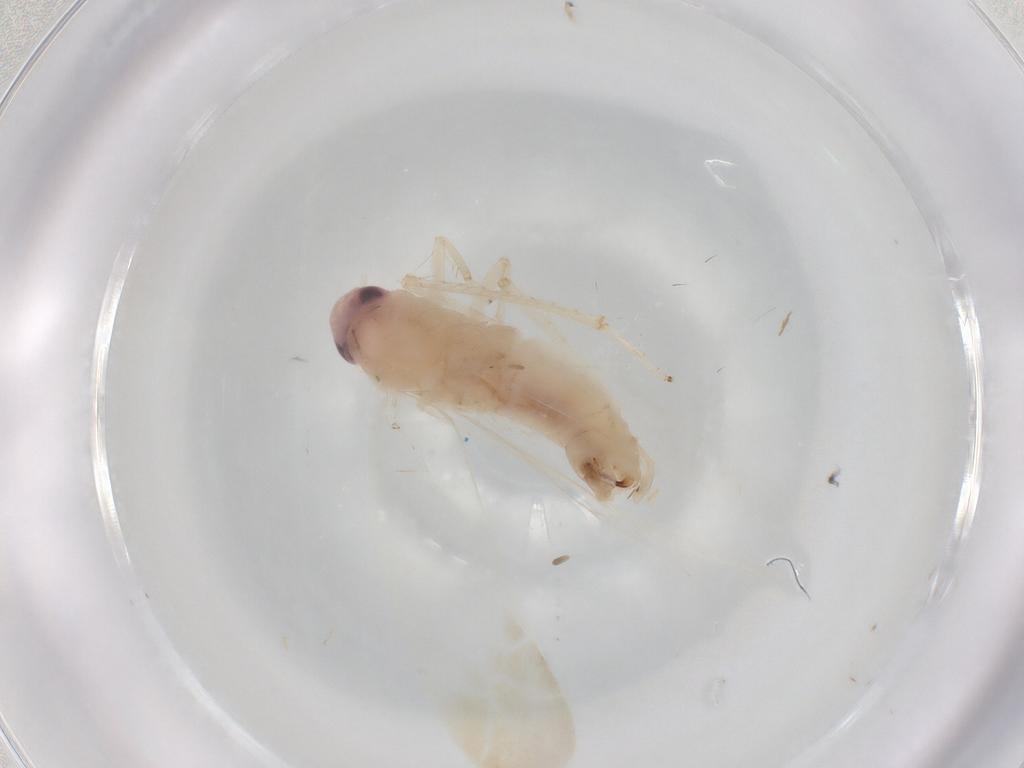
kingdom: Animalia
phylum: Arthropoda
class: Insecta
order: Hemiptera
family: Cicadellidae
